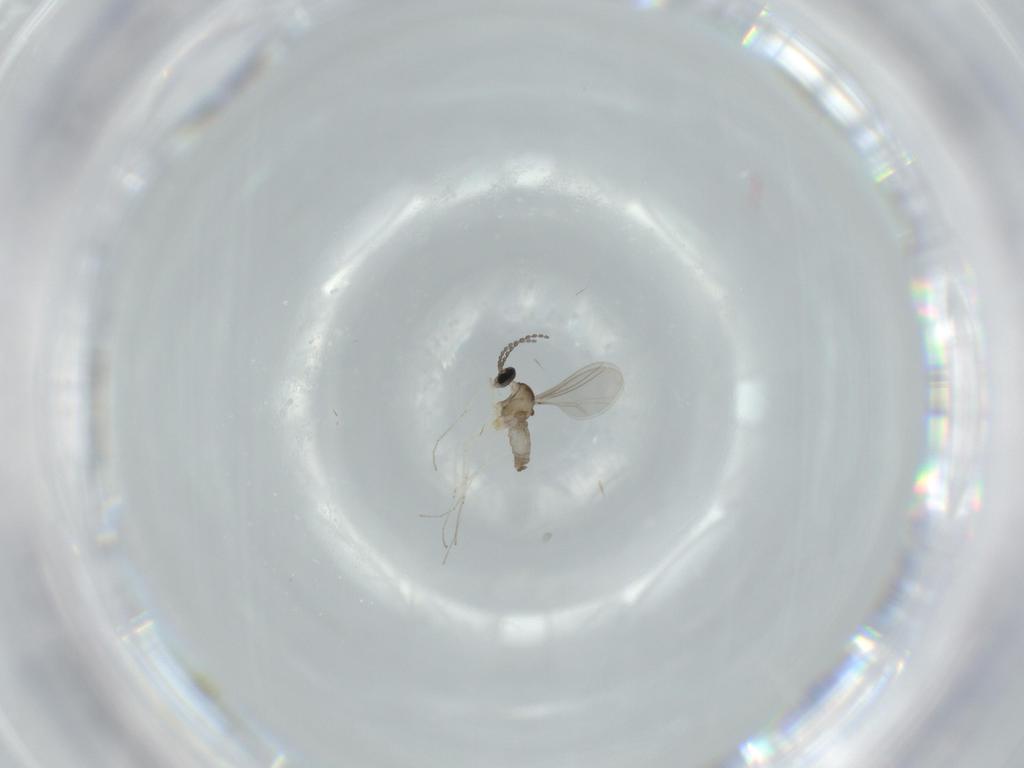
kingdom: Animalia
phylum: Arthropoda
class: Insecta
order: Diptera
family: Cecidomyiidae
